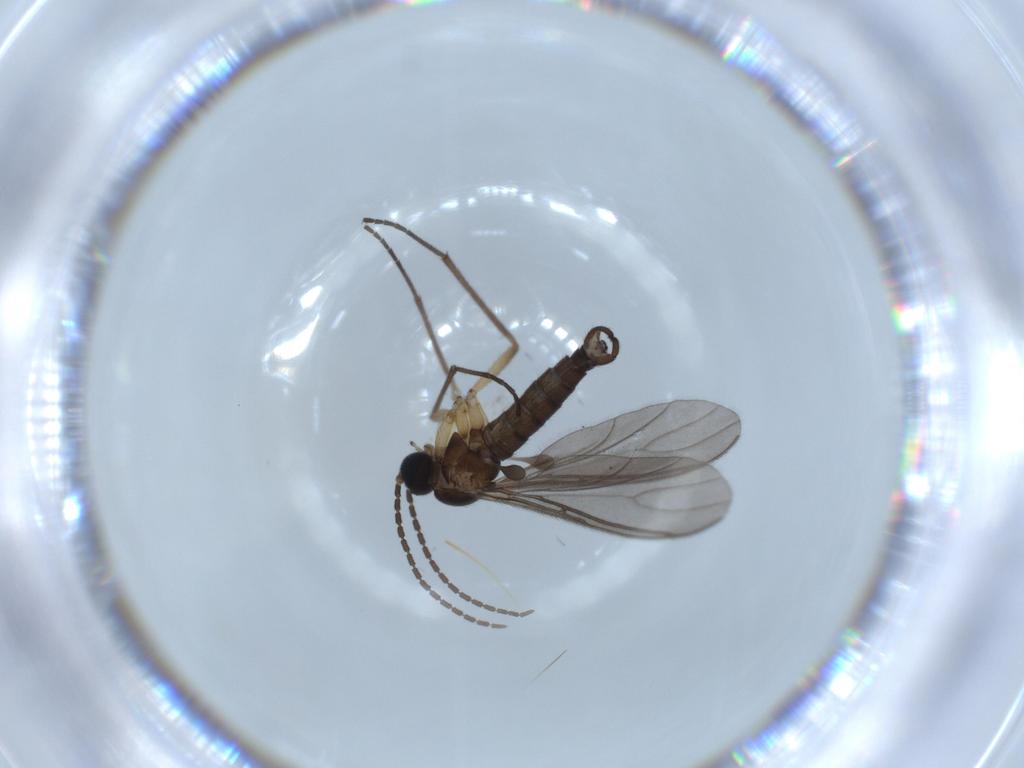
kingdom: Animalia
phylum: Arthropoda
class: Insecta
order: Diptera
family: Sciaridae
